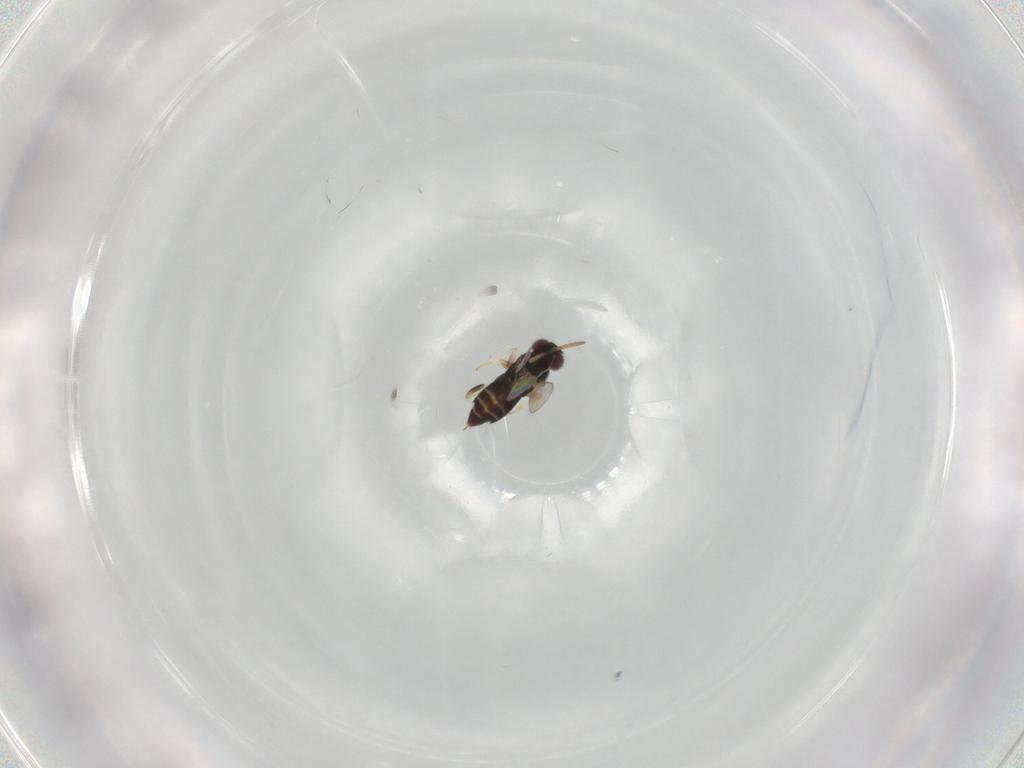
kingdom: Animalia
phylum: Arthropoda
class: Insecta
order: Hymenoptera
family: Aphelinidae
